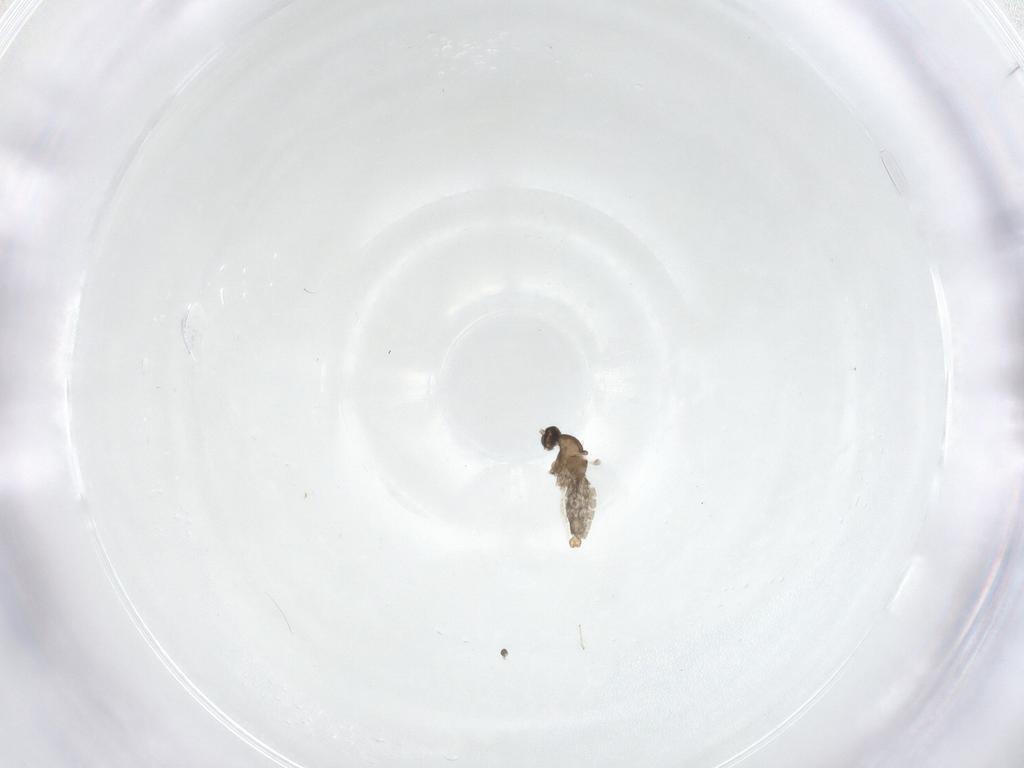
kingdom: Animalia
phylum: Arthropoda
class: Insecta
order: Diptera
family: Cecidomyiidae
